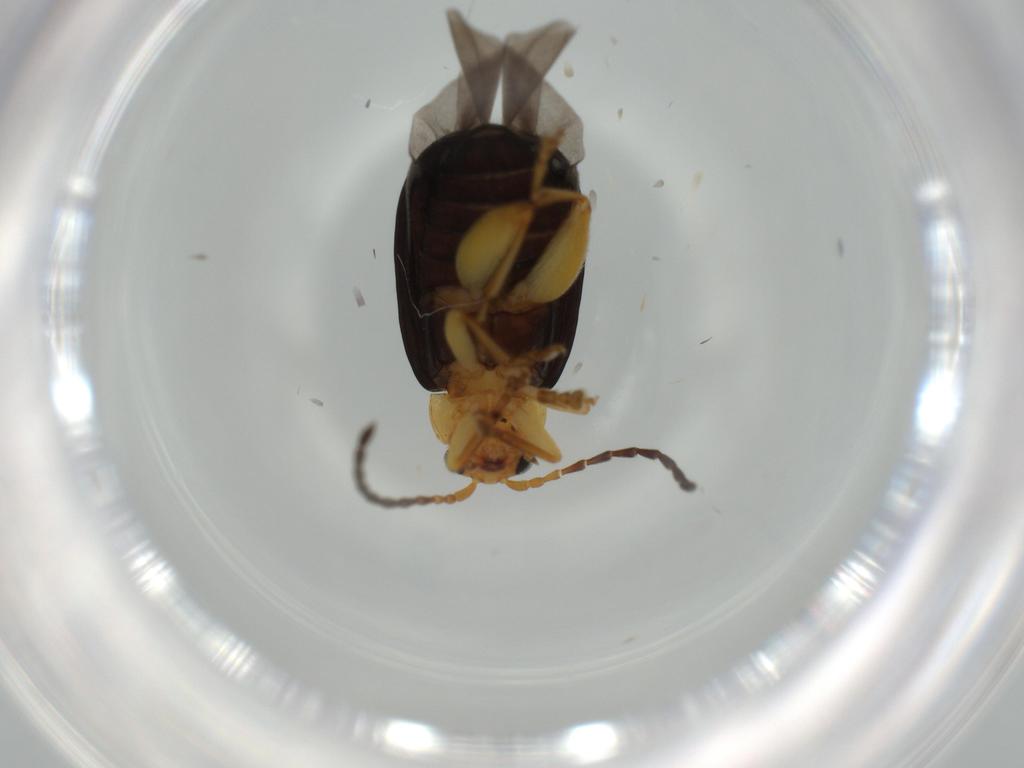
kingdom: Animalia
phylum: Arthropoda
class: Insecta
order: Coleoptera
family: Chrysomelidae
